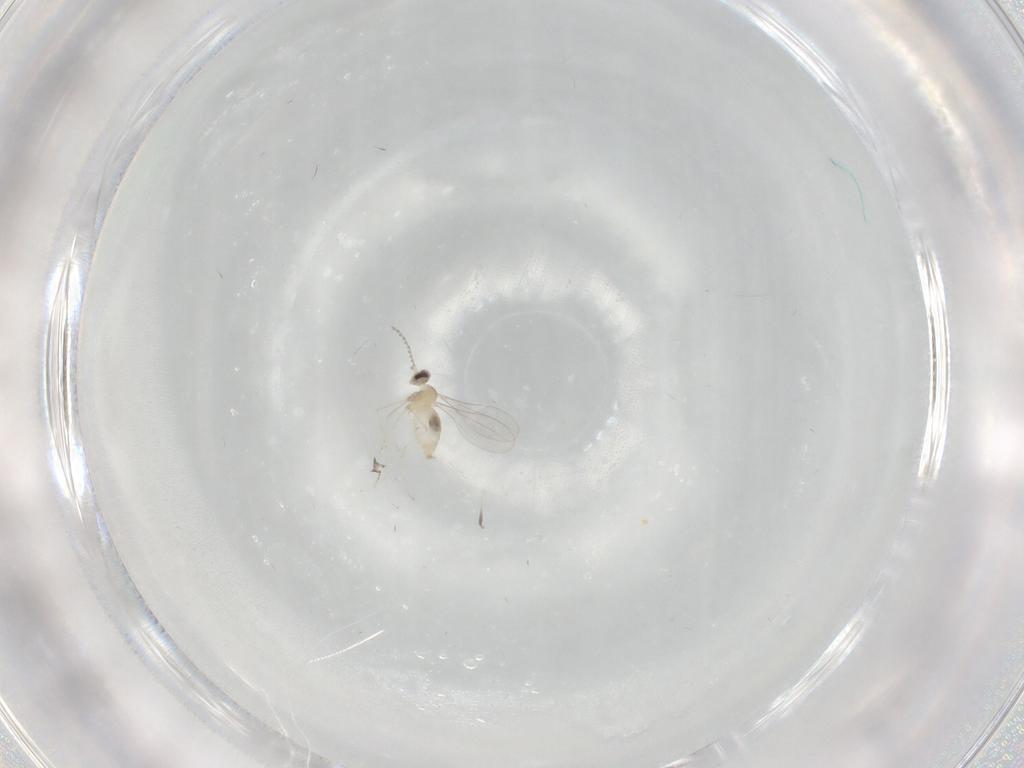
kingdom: Animalia
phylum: Arthropoda
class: Insecta
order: Diptera
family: Cecidomyiidae
